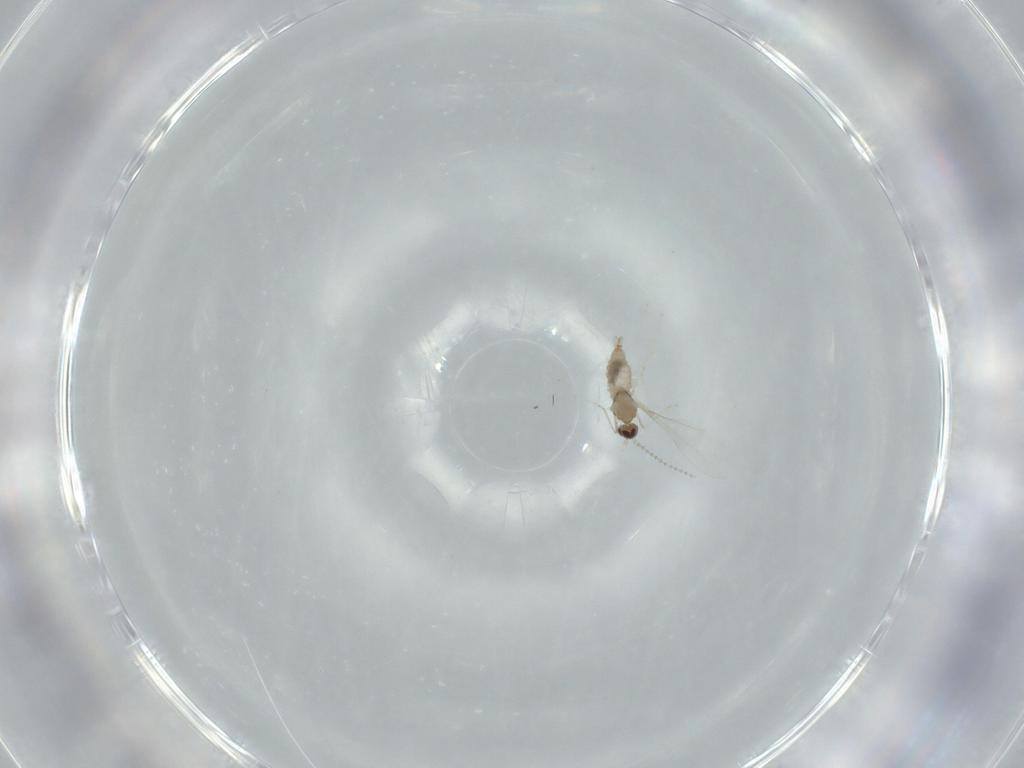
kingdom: Animalia
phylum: Arthropoda
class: Insecta
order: Diptera
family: Cecidomyiidae
